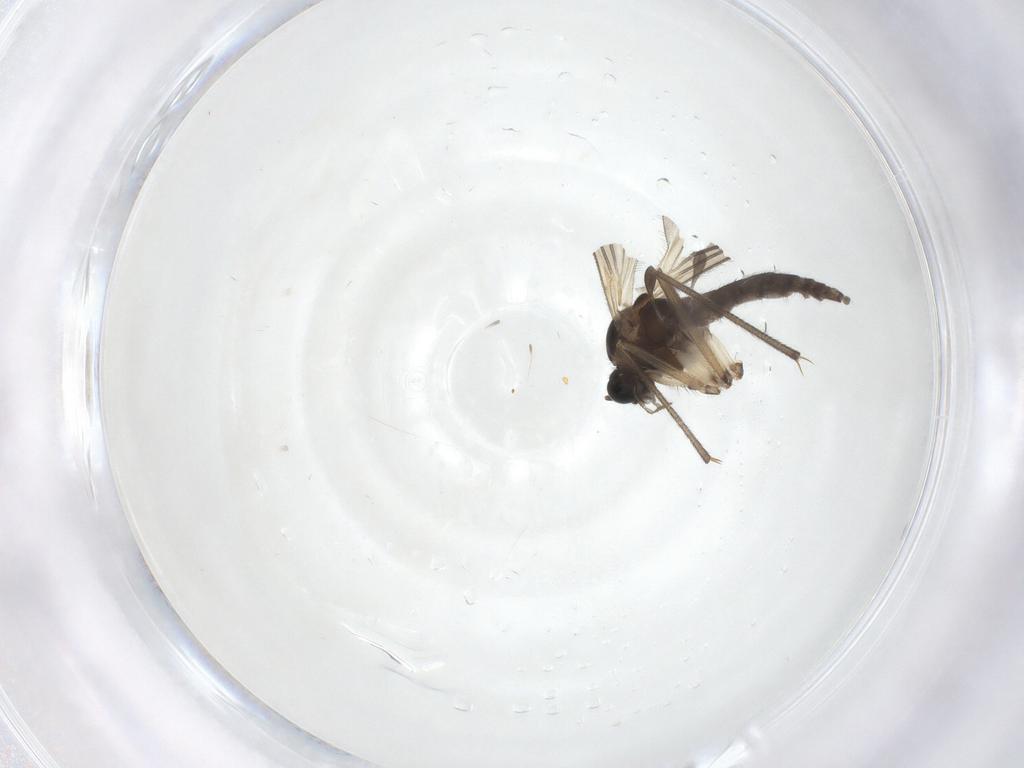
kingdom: Animalia
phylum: Arthropoda
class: Insecta
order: Diptera
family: Sciaridae
